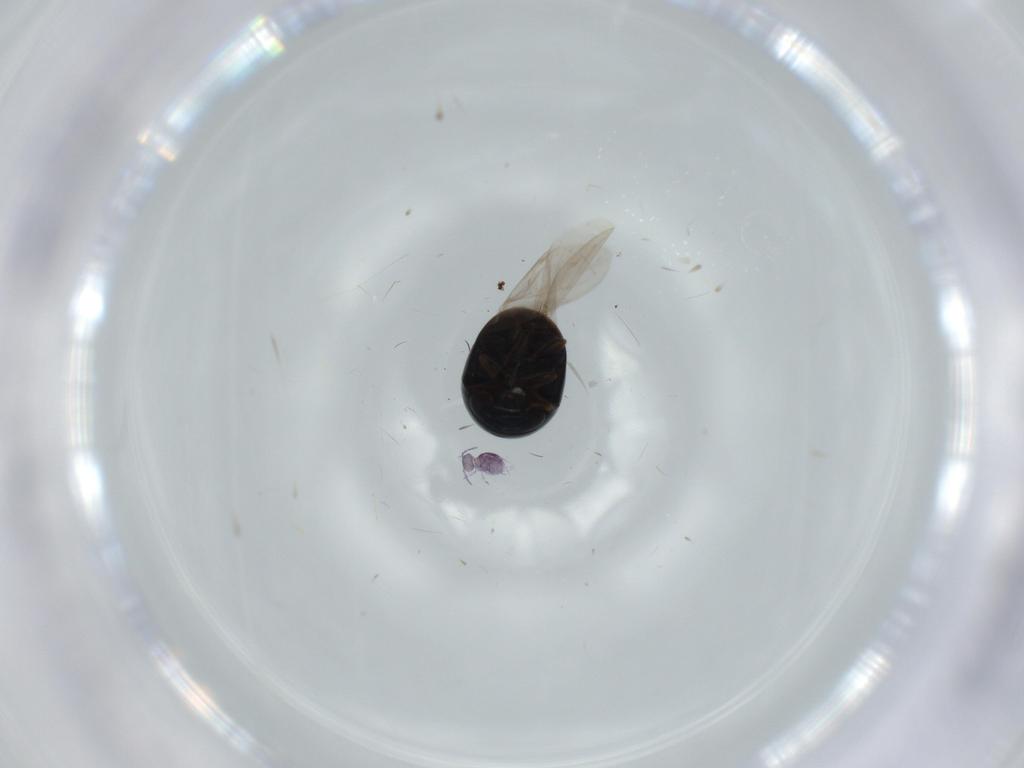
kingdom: Animalia
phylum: Arthropoda
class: Insecta
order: Coleoptera
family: Cybocephalidae
